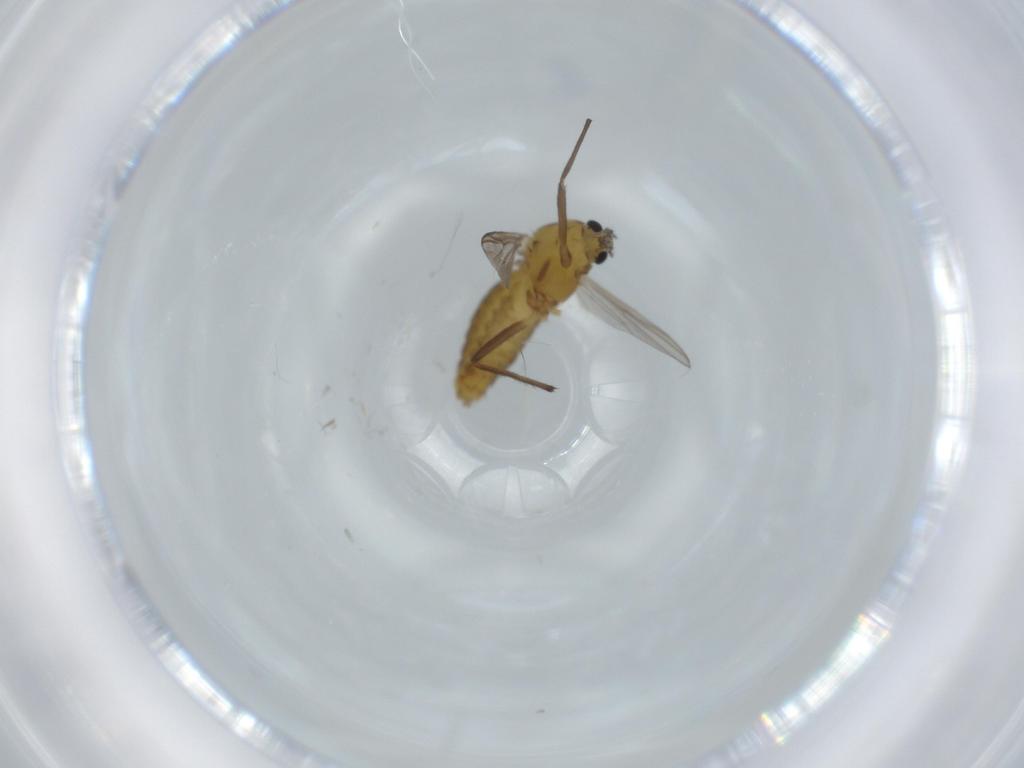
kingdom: Animalia
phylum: Arthropoda
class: Insecta
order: Diptera
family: Chironomidae
